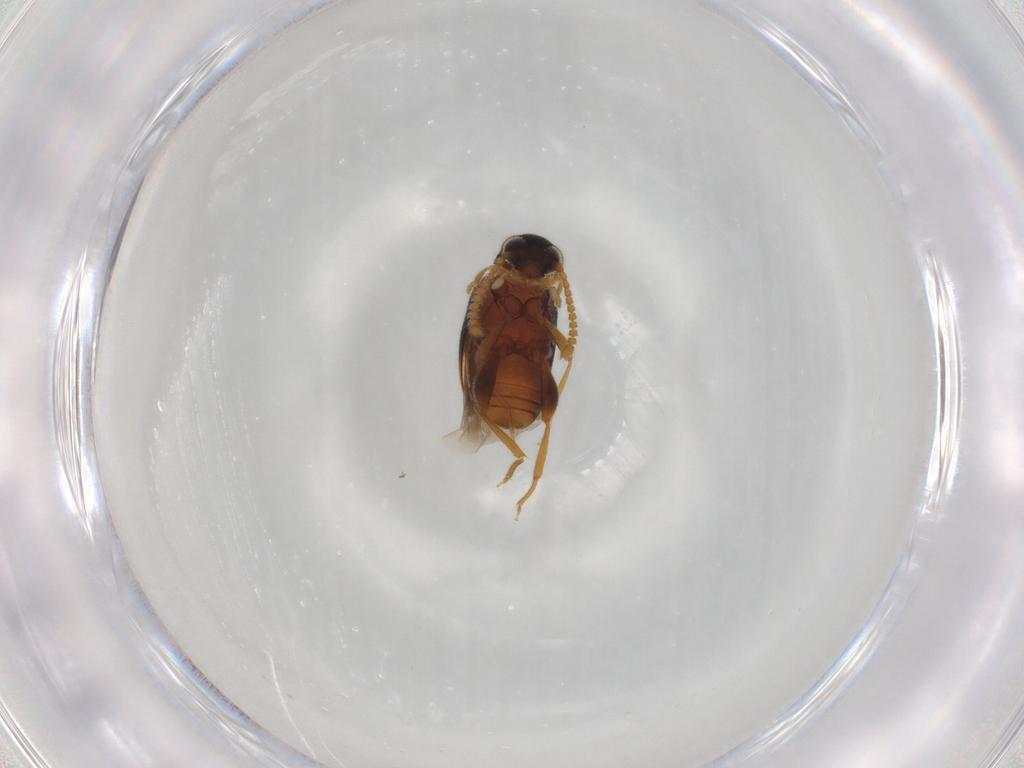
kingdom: Animalia
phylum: Arthropoda
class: Insecta
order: Coleoptera
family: Aderidae
